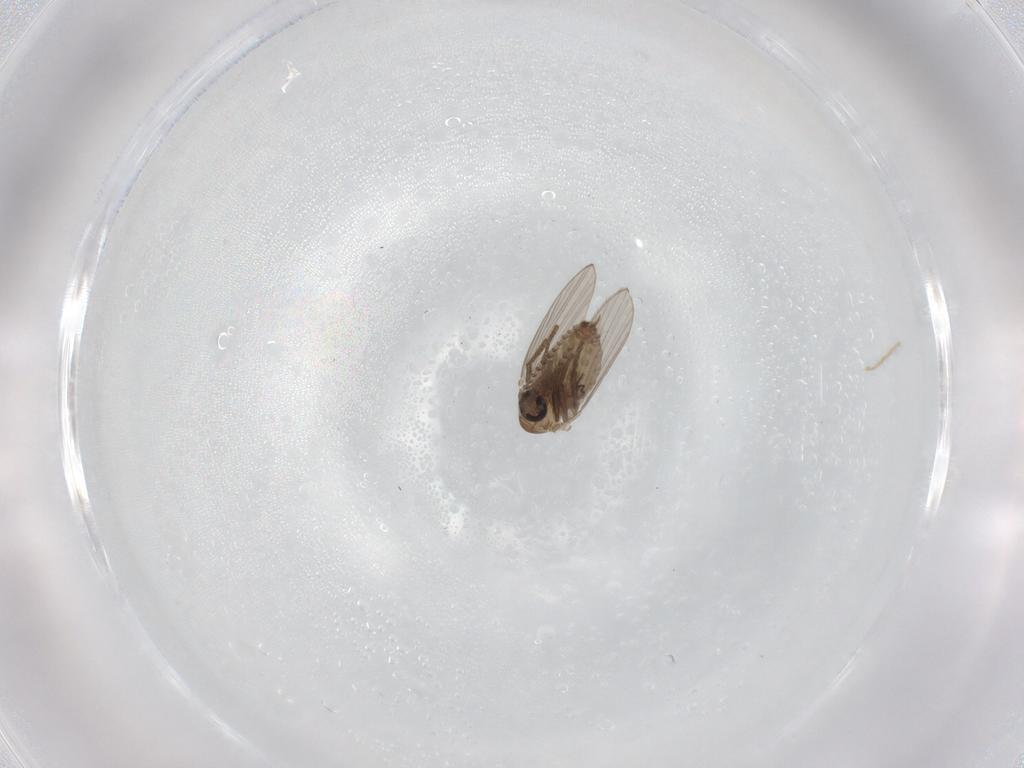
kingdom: Animalia
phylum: Arthropoda
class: Insecta
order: Diptera
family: Psychodidae
